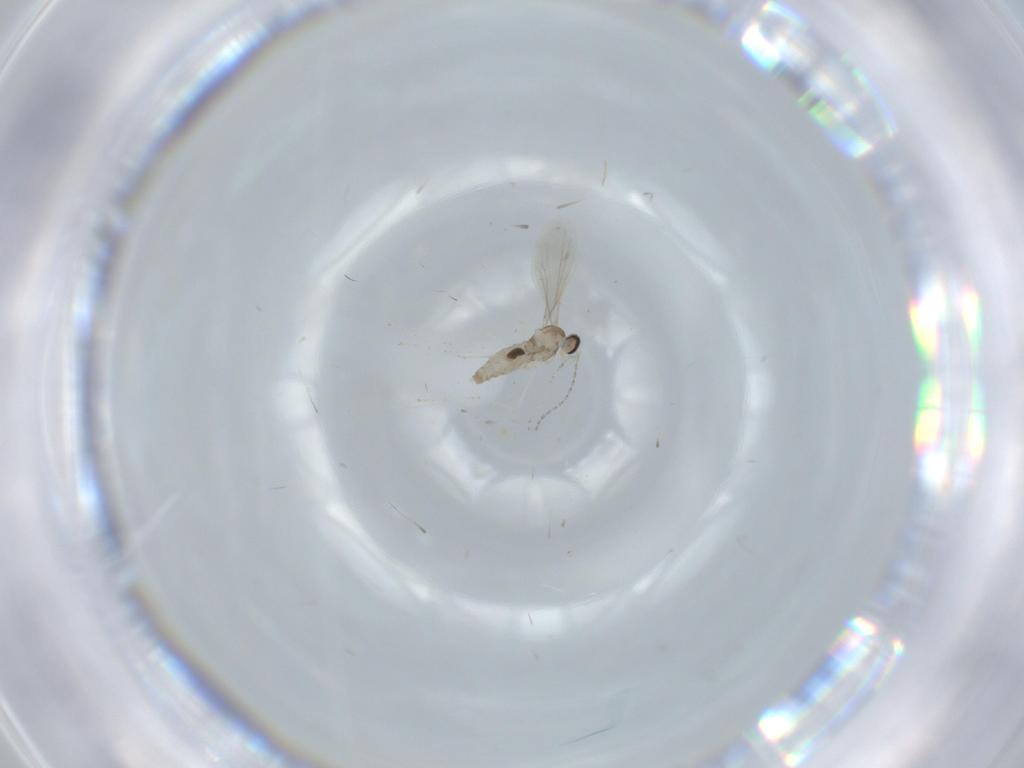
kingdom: Animalia
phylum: Arthropoda
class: Insecta
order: Diptera
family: Cecidomyiidae
